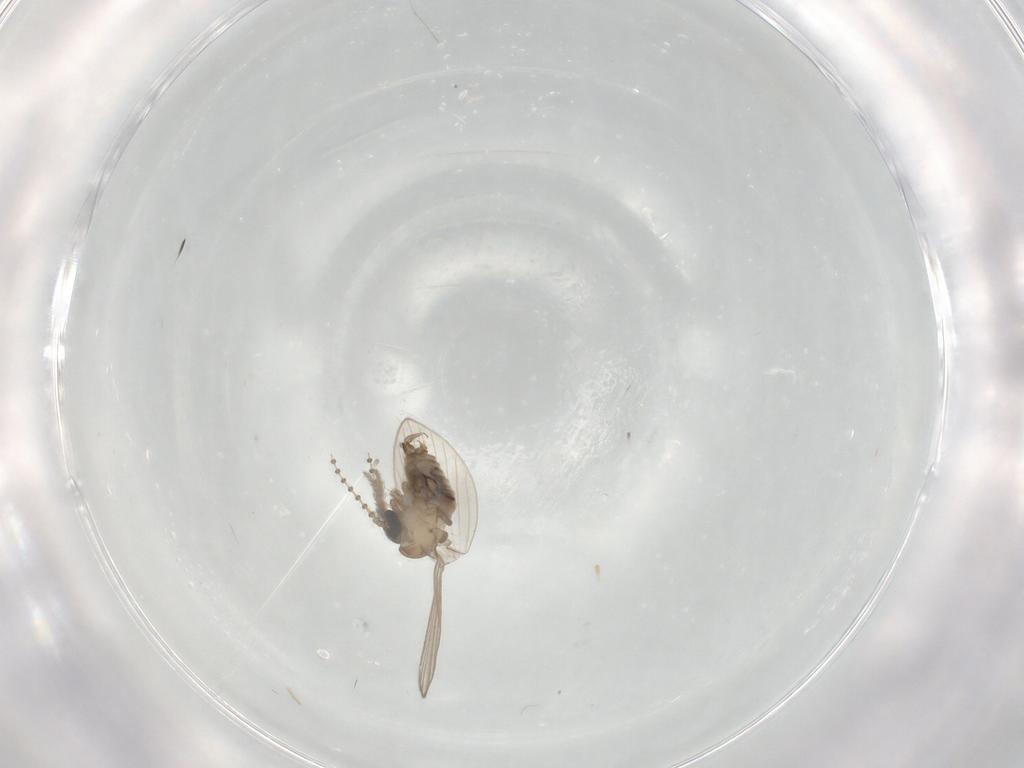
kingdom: Animalia
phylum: Arthropoda
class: Insecta
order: Diptera
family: Psychodidae
